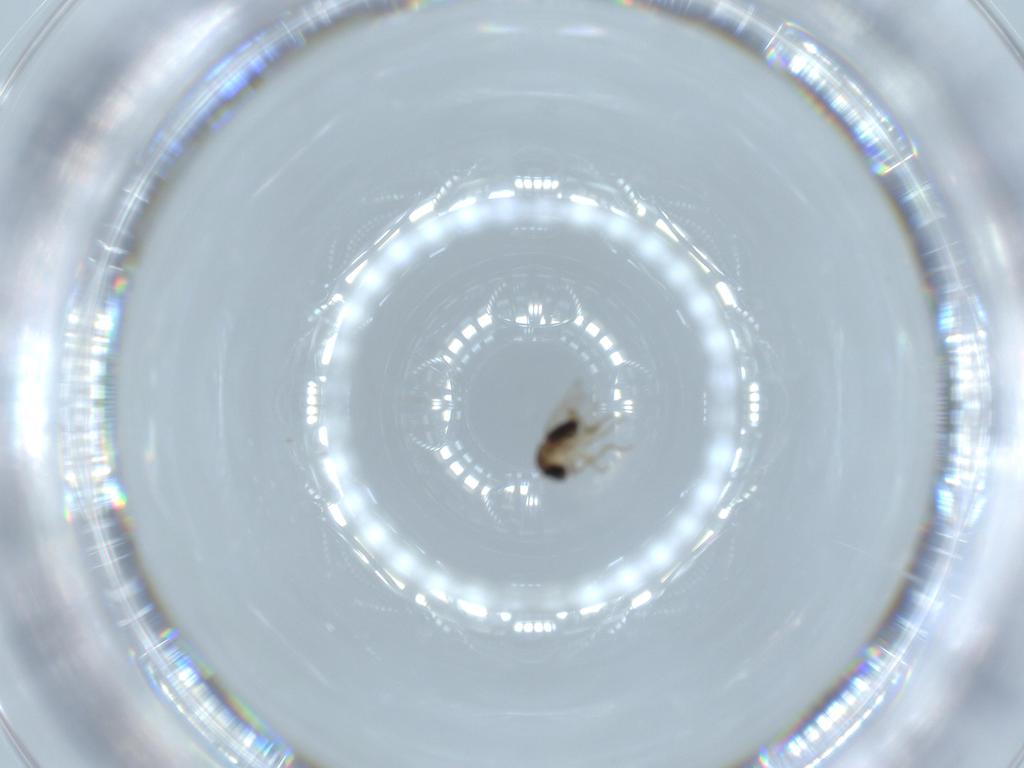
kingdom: Animalia
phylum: Arthropoda
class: Insecta
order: Diptera
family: Phoridae
